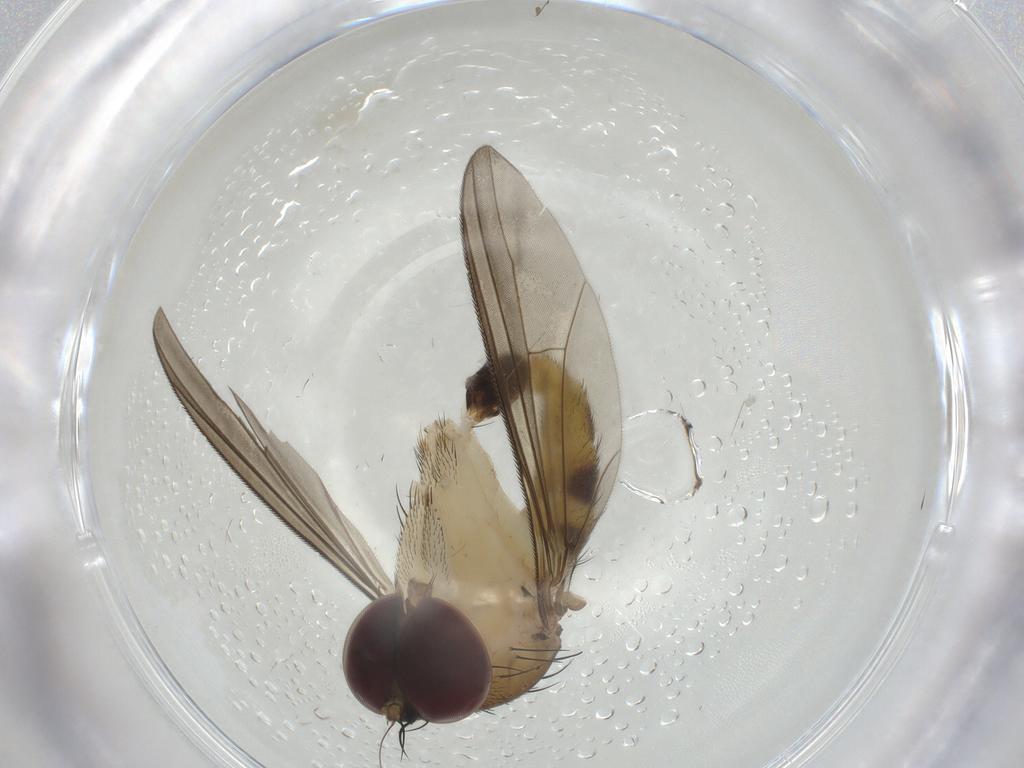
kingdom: Animalia
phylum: Arthropoda
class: Insecta
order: Diptera
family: Dolichopodidae
